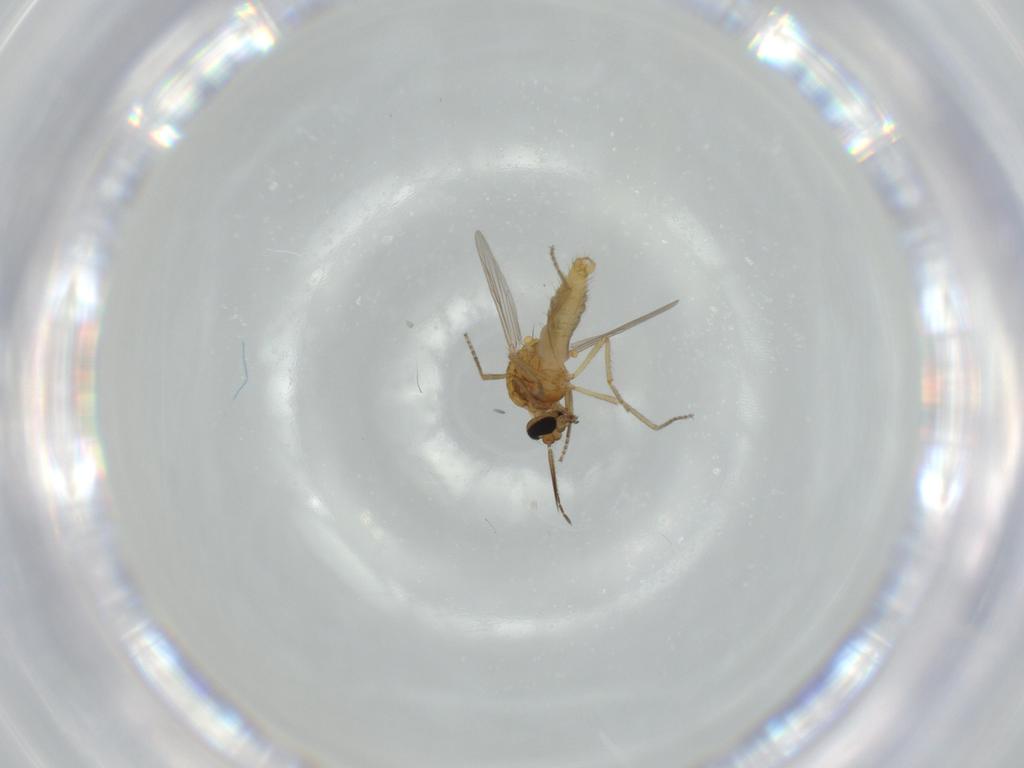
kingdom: Animalia
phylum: Arthropoda
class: Insecta
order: Diptera
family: Ceratopogonidae
